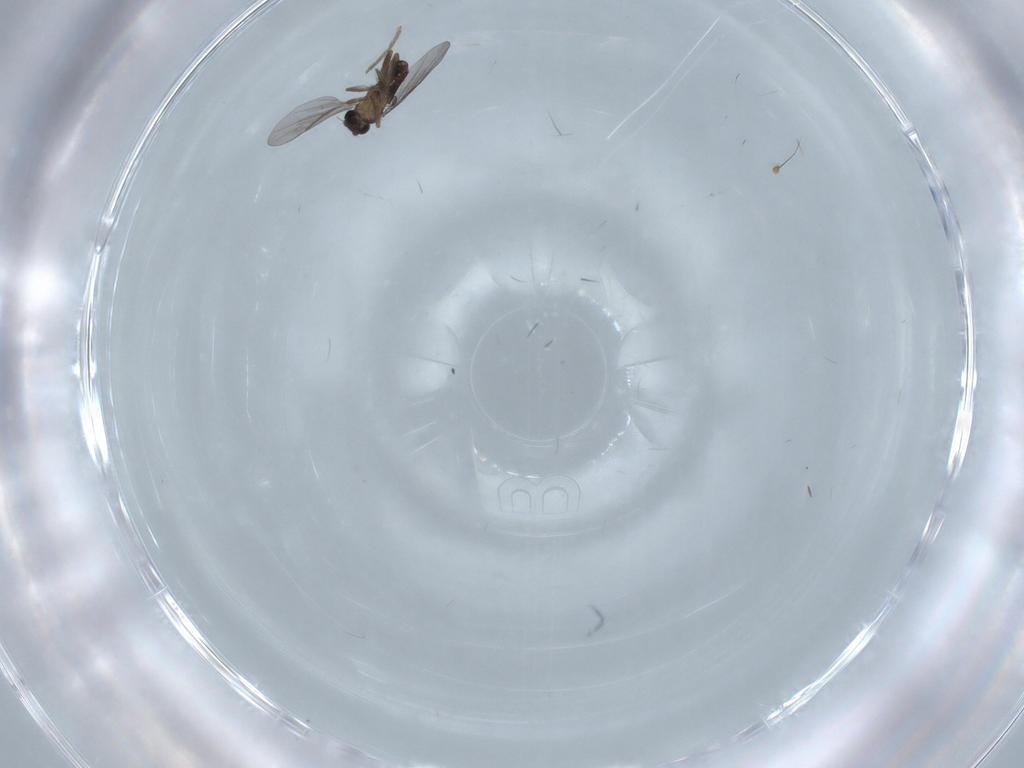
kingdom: Animalia
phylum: Arthropoda
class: Insecta
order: Diptera
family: Dolichopodidae
